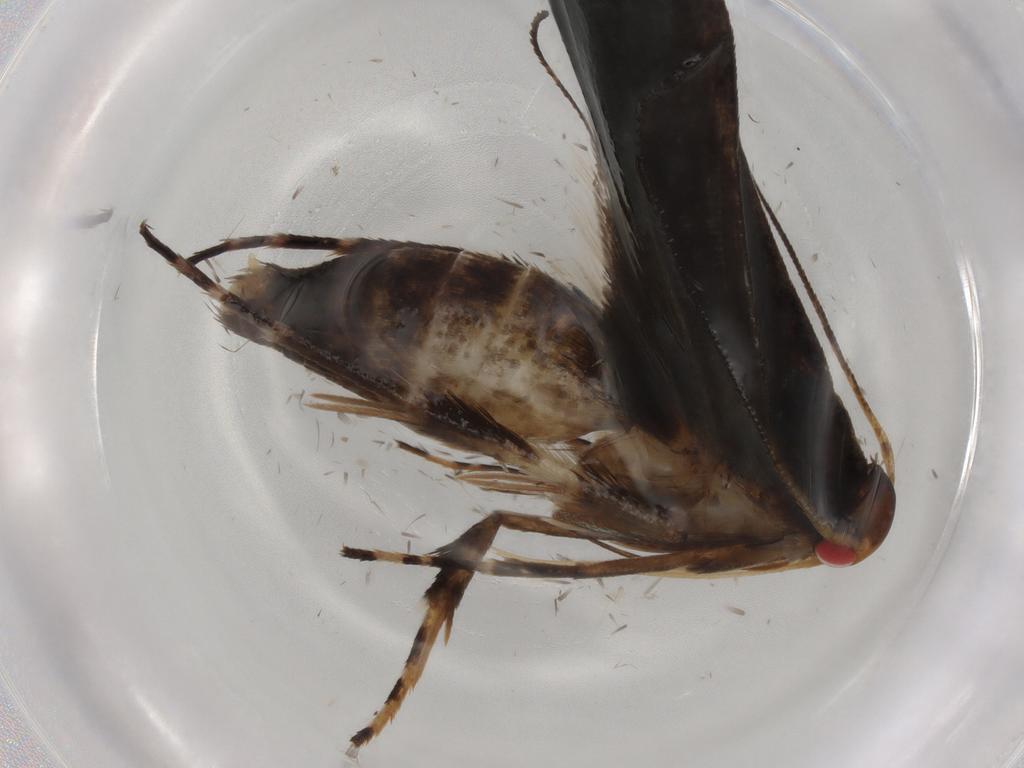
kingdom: Animalia
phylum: Arthropoda
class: Insecta
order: Lepidoptera
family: Gelechiidae
